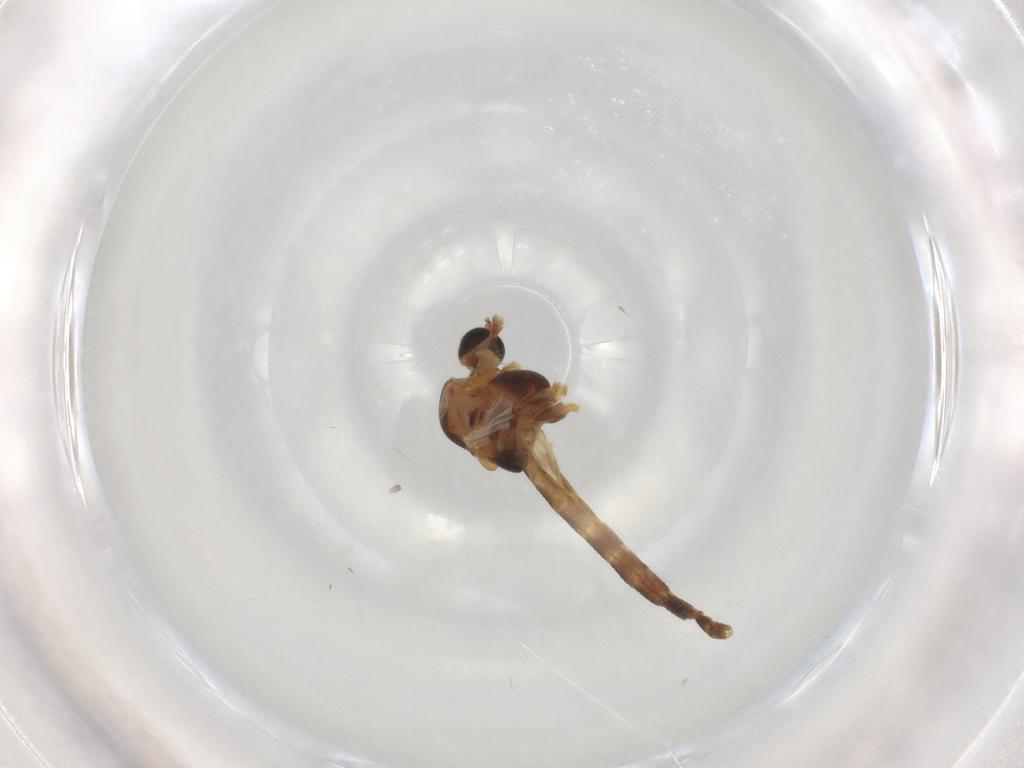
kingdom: Animalia
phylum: Arthropoda
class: Insecta
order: Diptera
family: Chironomidae
